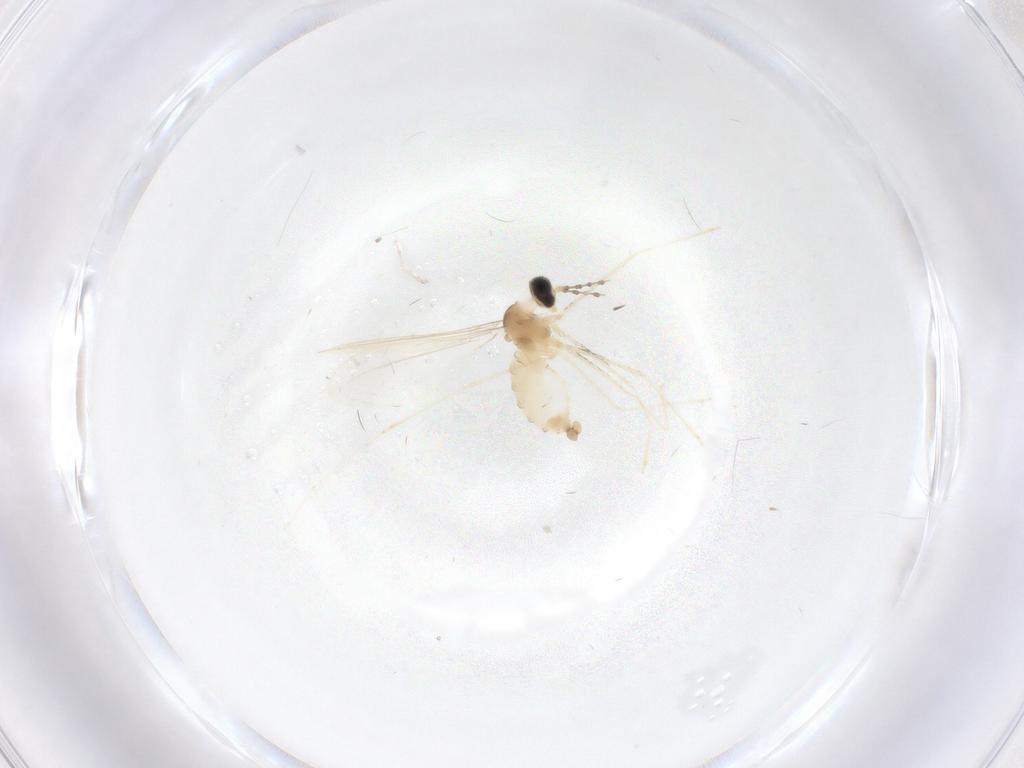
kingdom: Animalia
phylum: Arthropoda
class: Insecta
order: Diptera
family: Cecidomyiidae
